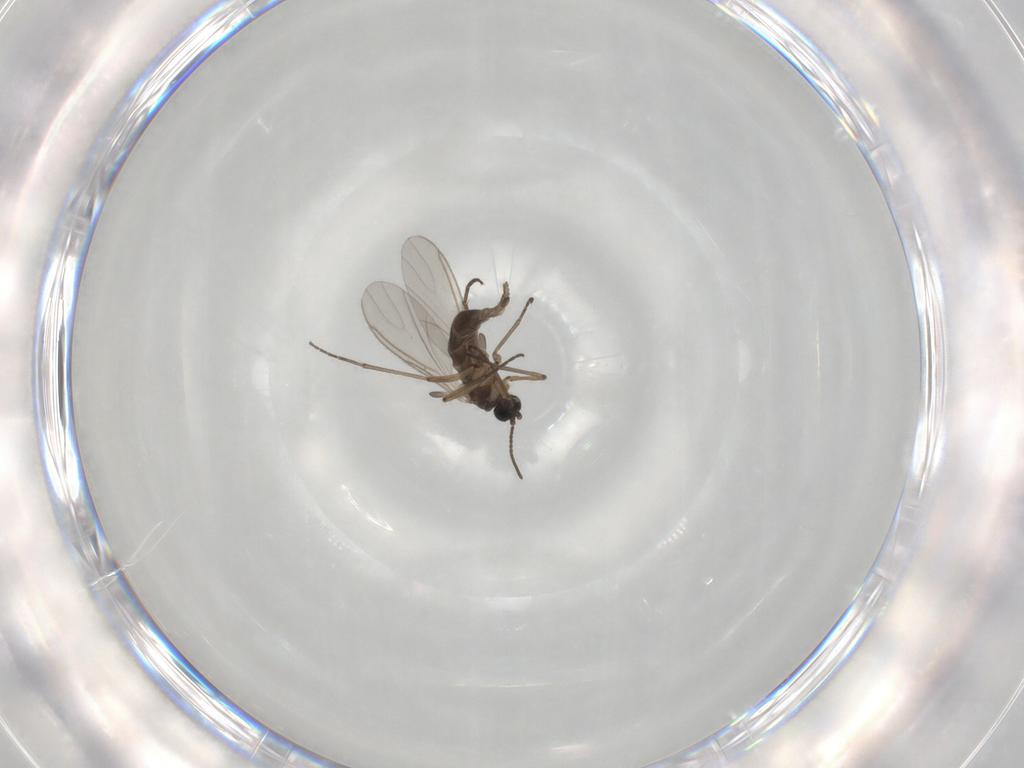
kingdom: Animalia
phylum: Arthropoda
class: Insecta
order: Diptera
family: Sciaridae
